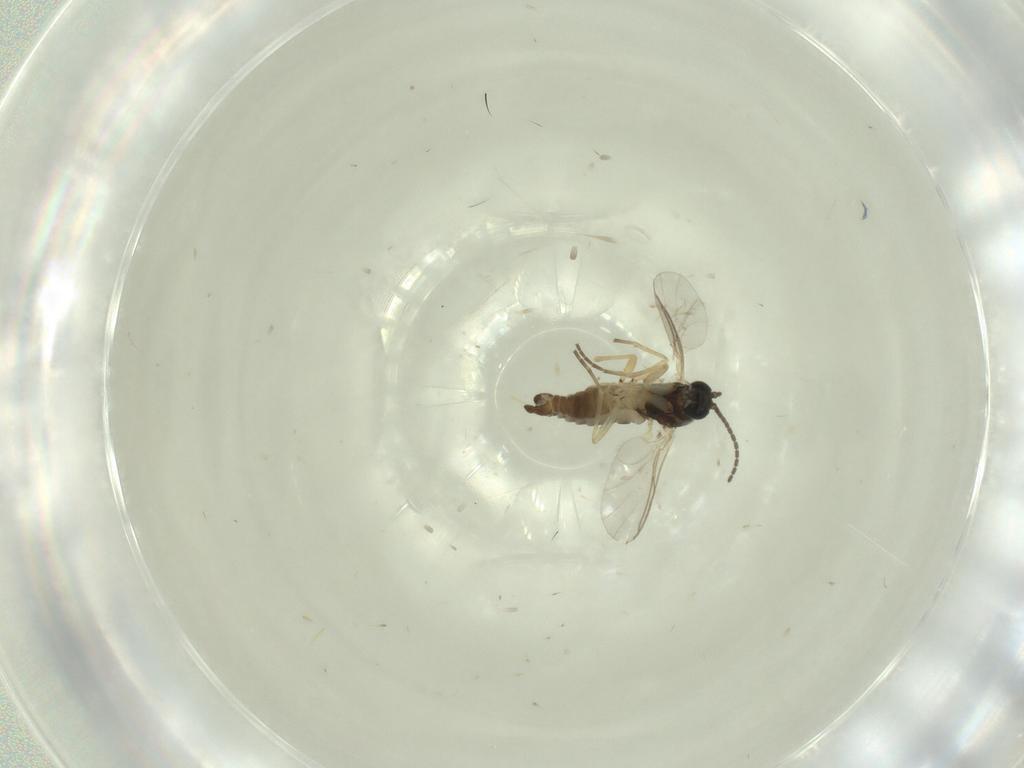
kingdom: Animalia
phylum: Arthropoda
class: Insecta
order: Diptera
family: Milichiidae
